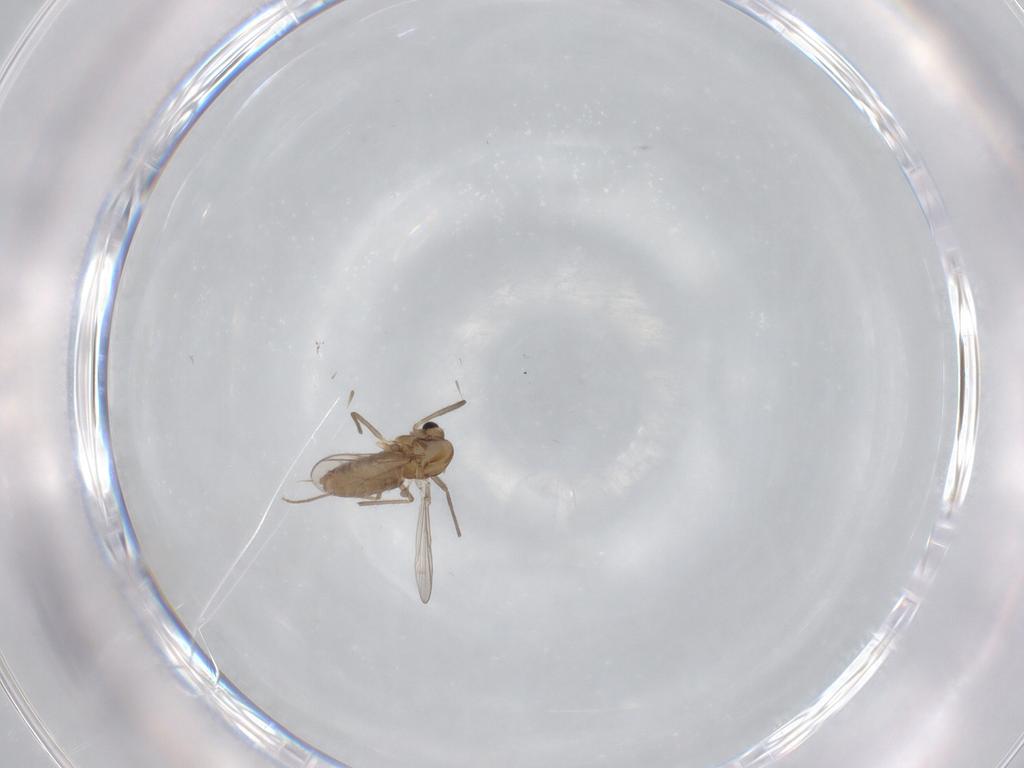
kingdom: Animalia
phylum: Arthropoda
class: Insecta
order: Diptera
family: Chironomidae
